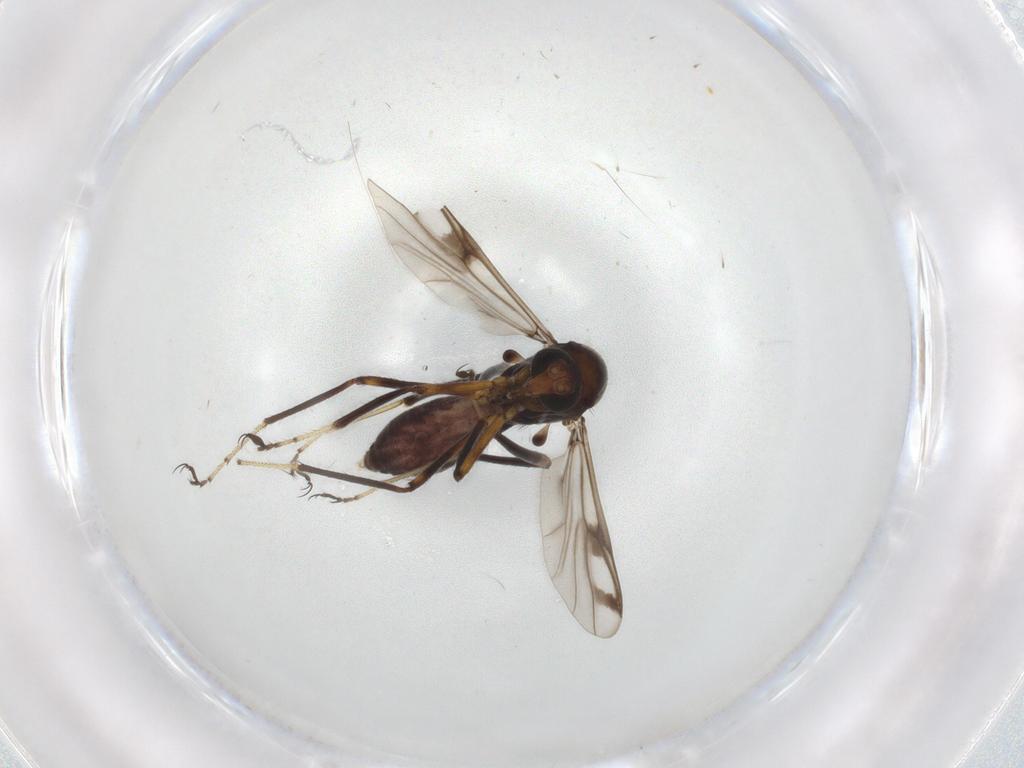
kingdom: Animalia
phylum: Arthropoda
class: Insecta
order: Diptera
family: Ceratopogonidae
